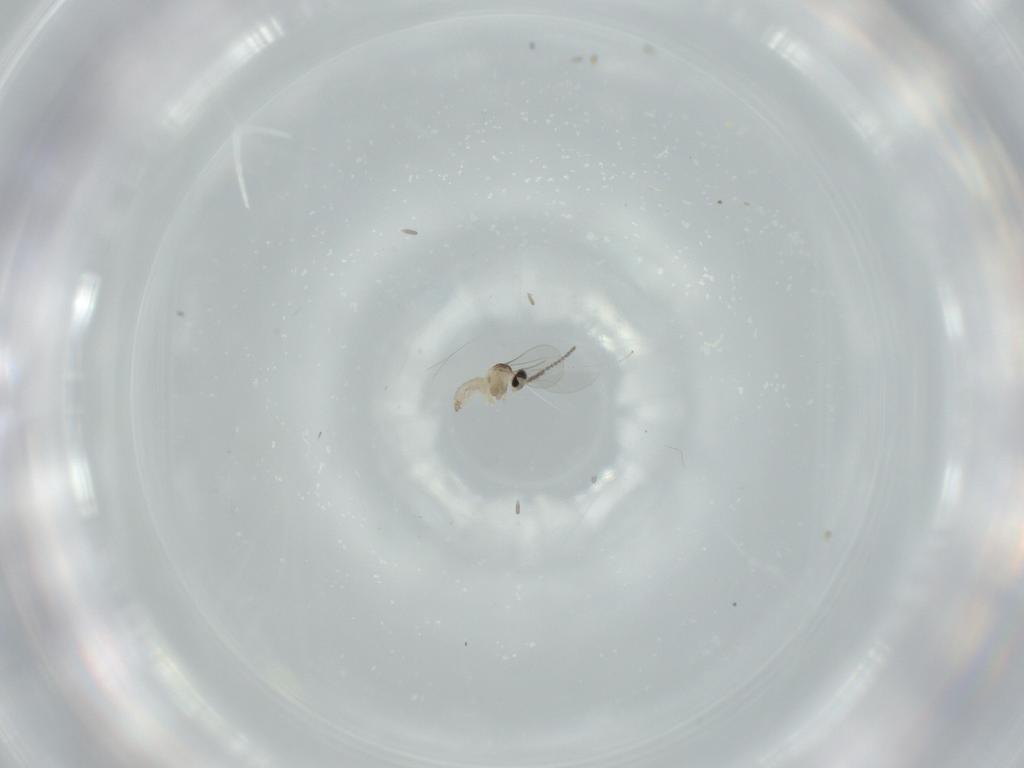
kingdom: Animalia
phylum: Arthropoda
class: Insecta
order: Diptera
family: Cecidomyiidae
